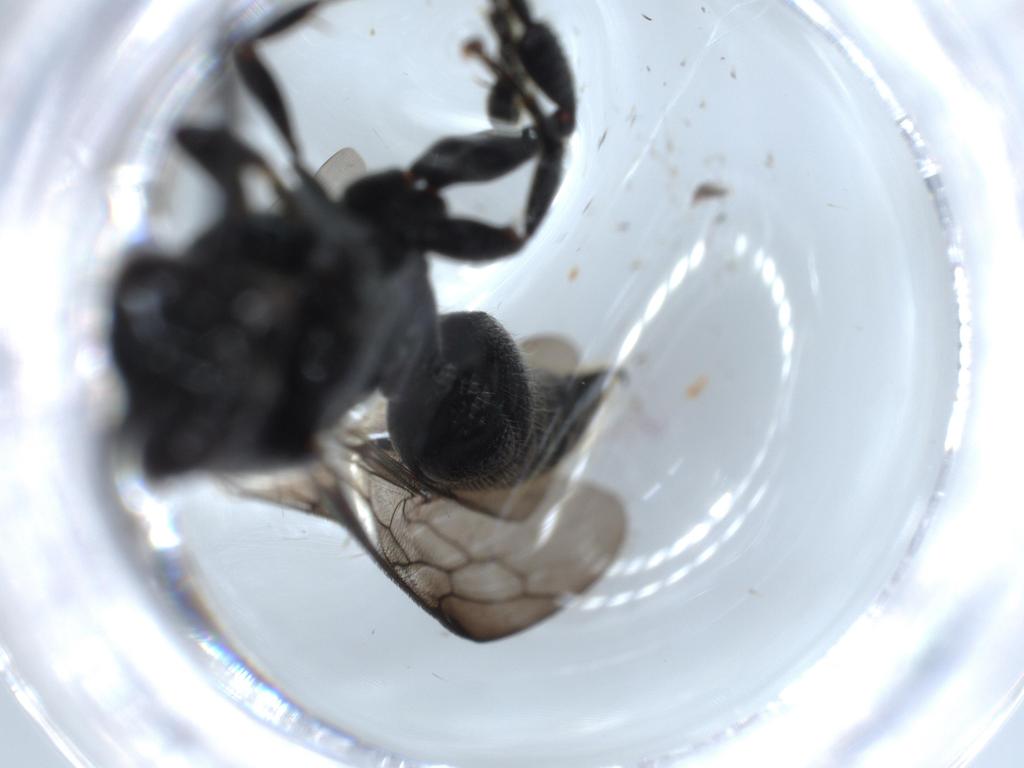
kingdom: Animalia
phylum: Arthropoda
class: Insecta
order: Hymenoptera
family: Tiphiidae
